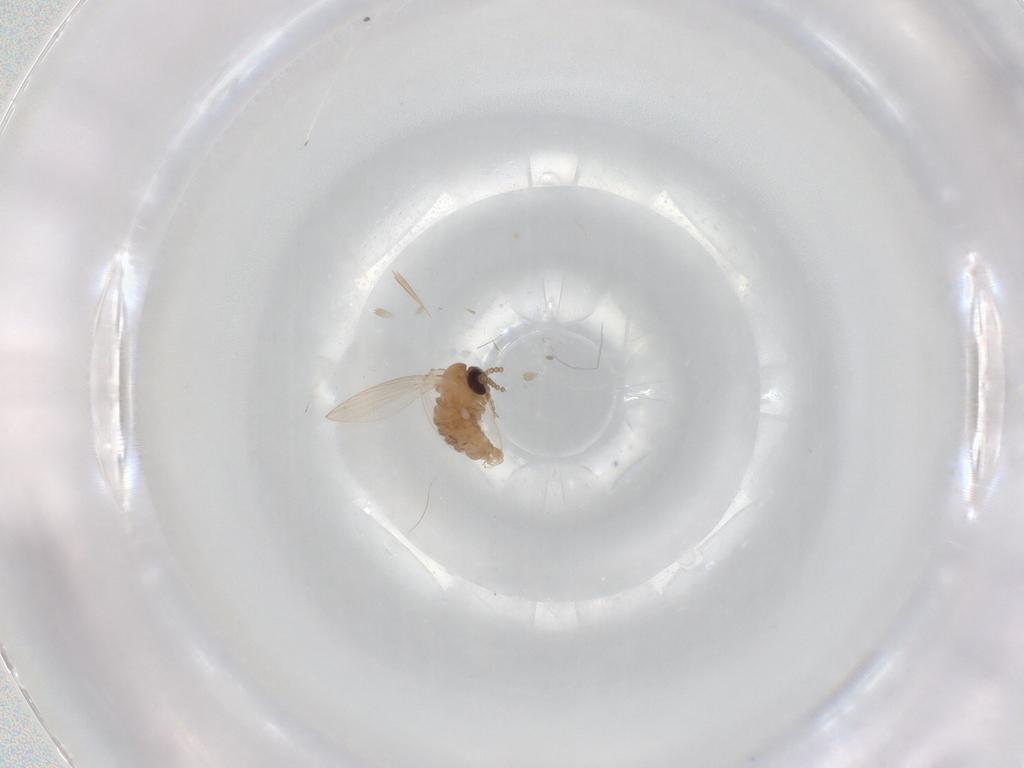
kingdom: Animalia
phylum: Arthropoda
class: Insecta
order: Diptera
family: Psychodidae
